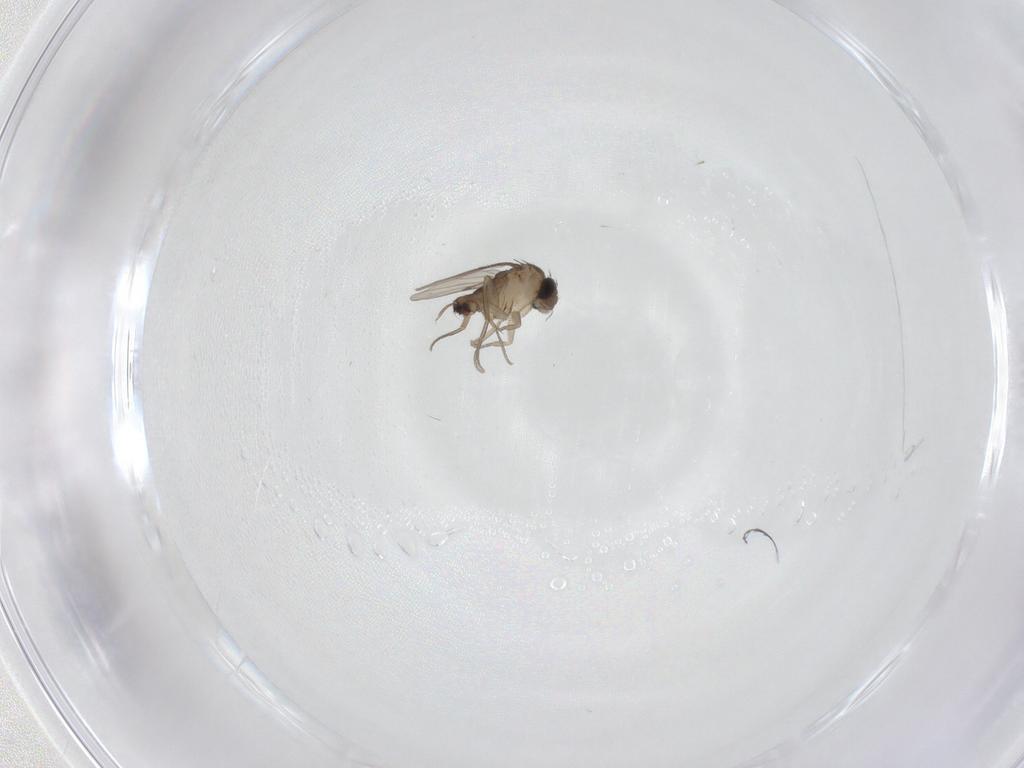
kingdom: Animalia
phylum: Arthropoda
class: Insecta
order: Diptera
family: Phoridae
